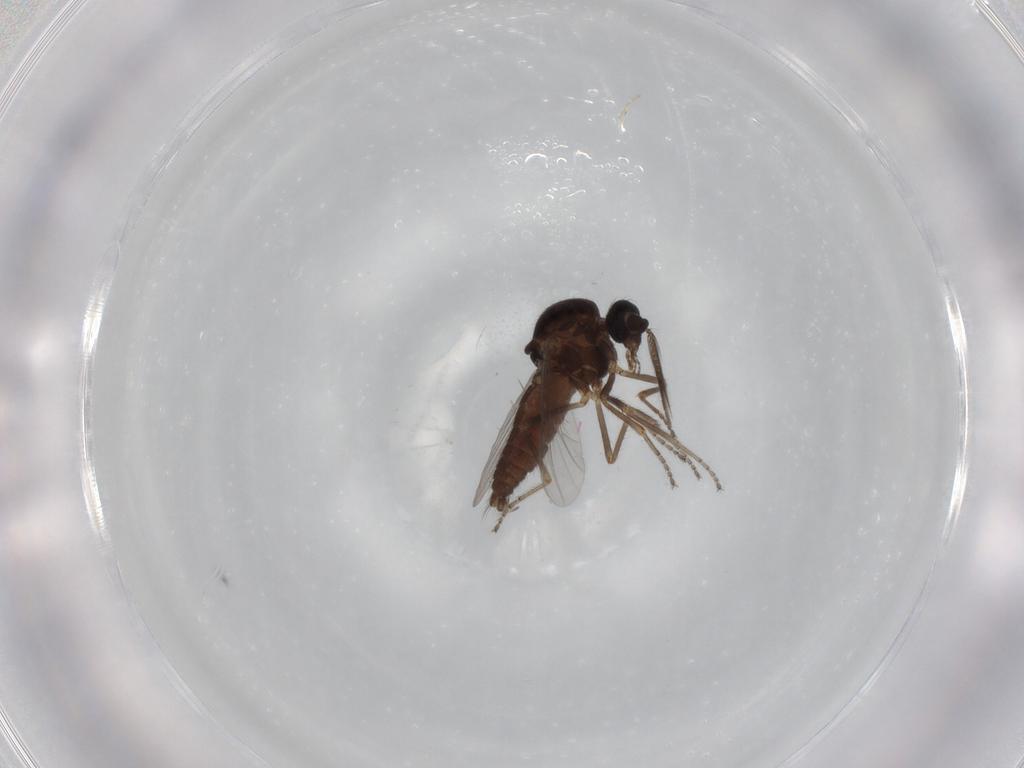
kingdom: Animalia
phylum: Arthropoda
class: Insecta
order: Diptera
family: Ceratopogonidae
